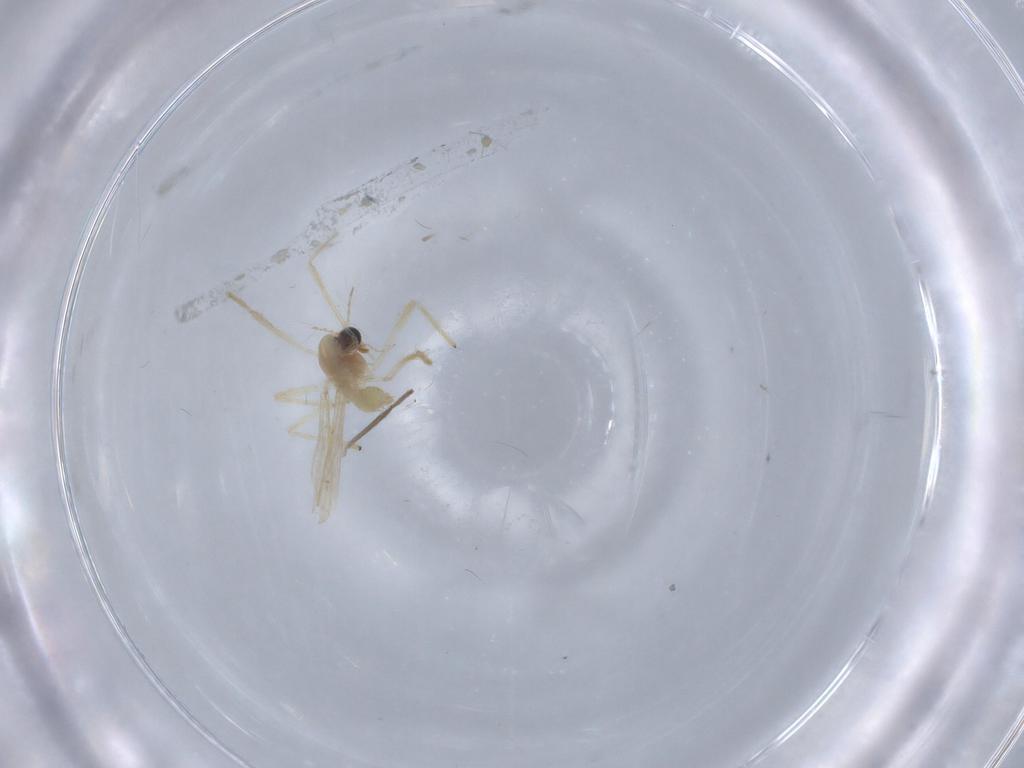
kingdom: Animalia
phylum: Arthropoda
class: Insecta
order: Diptera
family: Chironomidae
